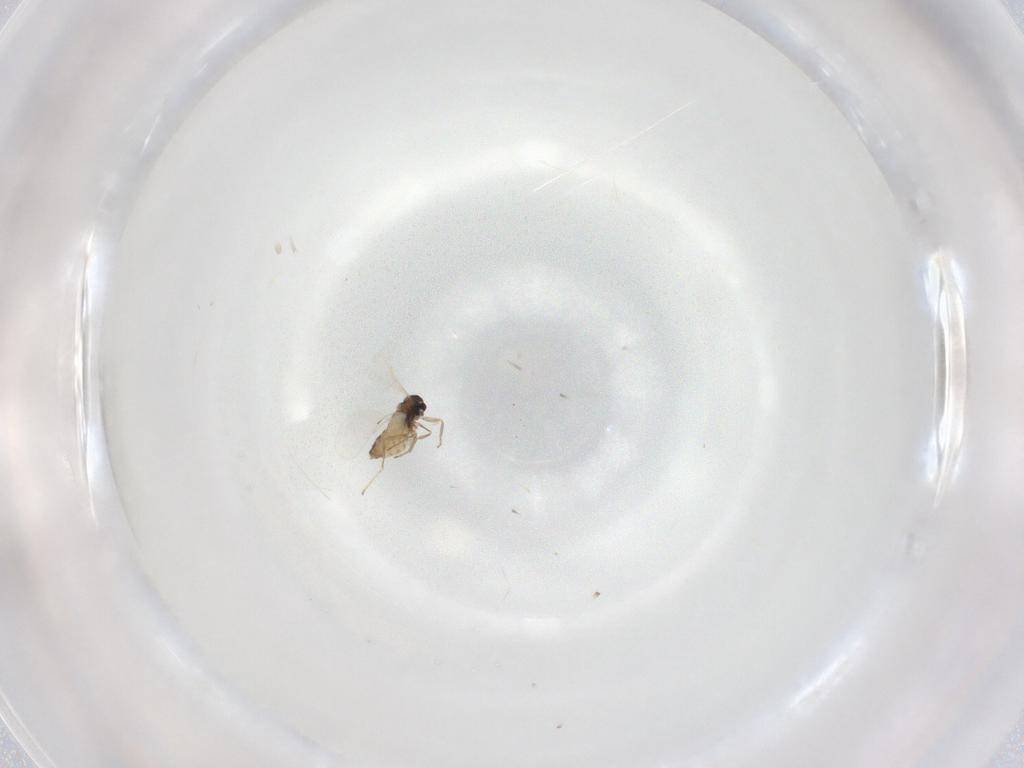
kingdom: Animalia
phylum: Arthropoda
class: Insecta
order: Diptera
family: Cecidomyiidae
